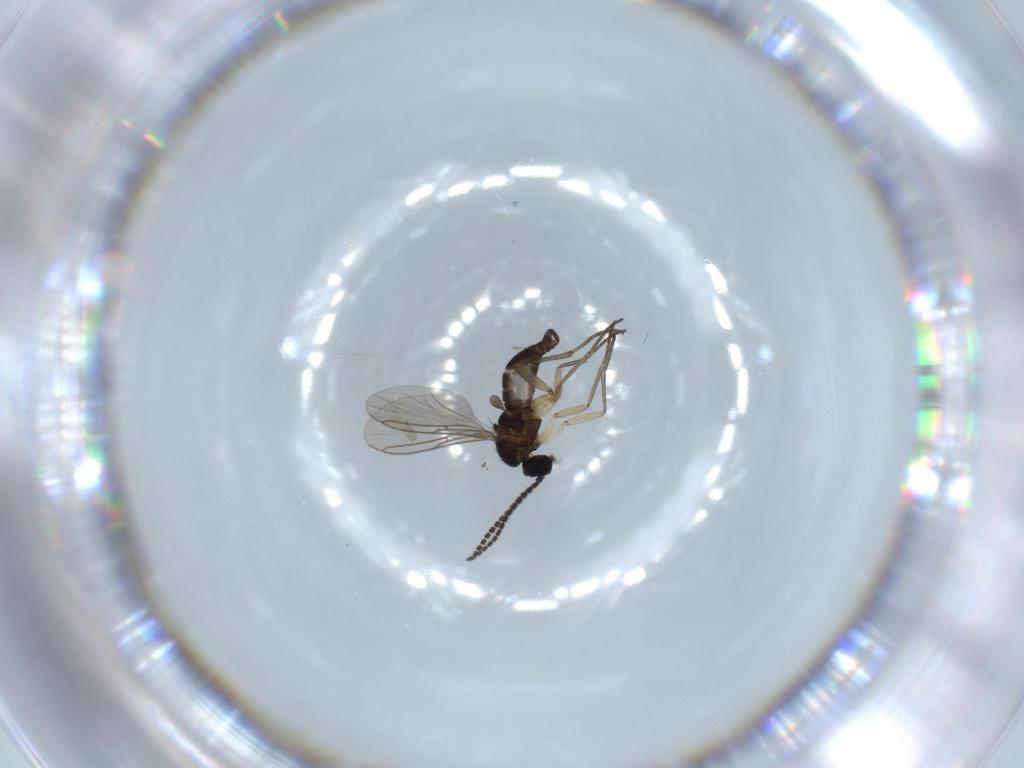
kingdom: Animalia
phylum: Arthropoda
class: Insecta
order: Diptera
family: Sciaridae
